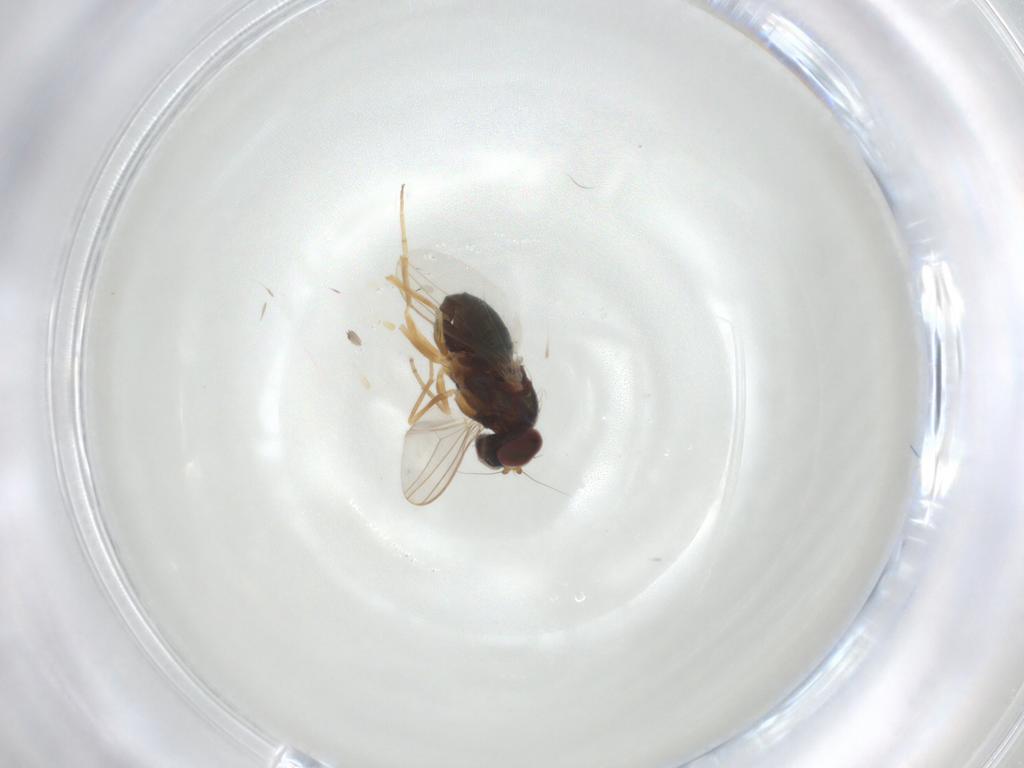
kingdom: Animalia
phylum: Arthropoda
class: Insecta
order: Diptera
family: Dolichopodidae
